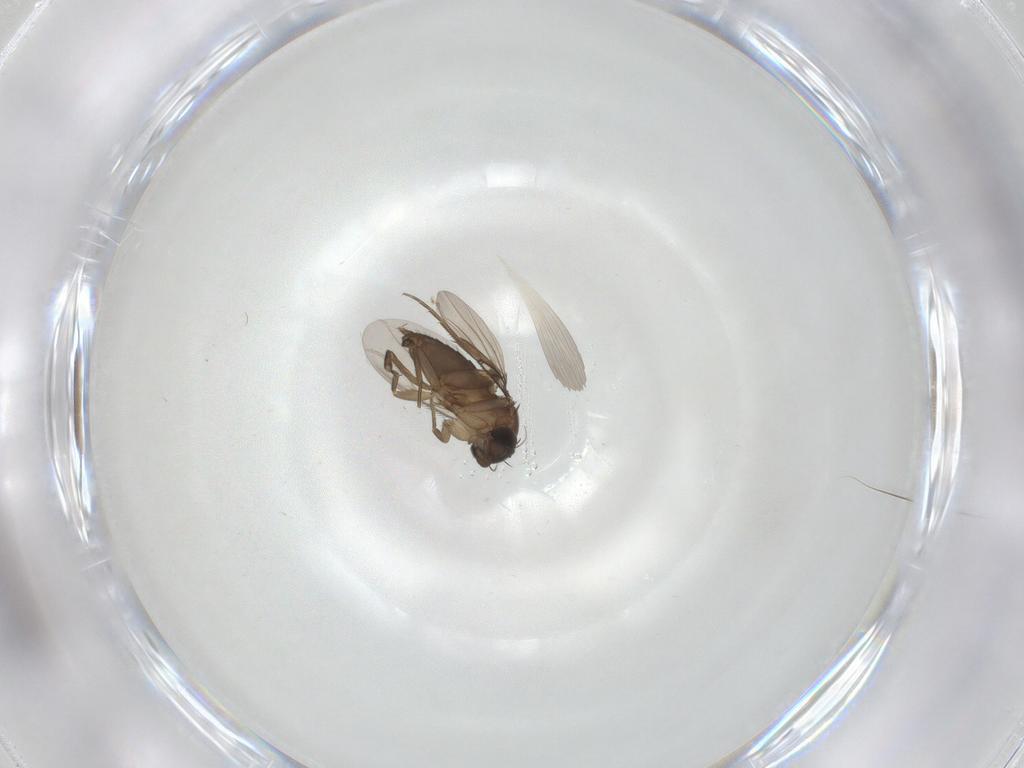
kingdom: Animalia
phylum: Arthropoda
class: Insecta
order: Diptera
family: Phoridae
